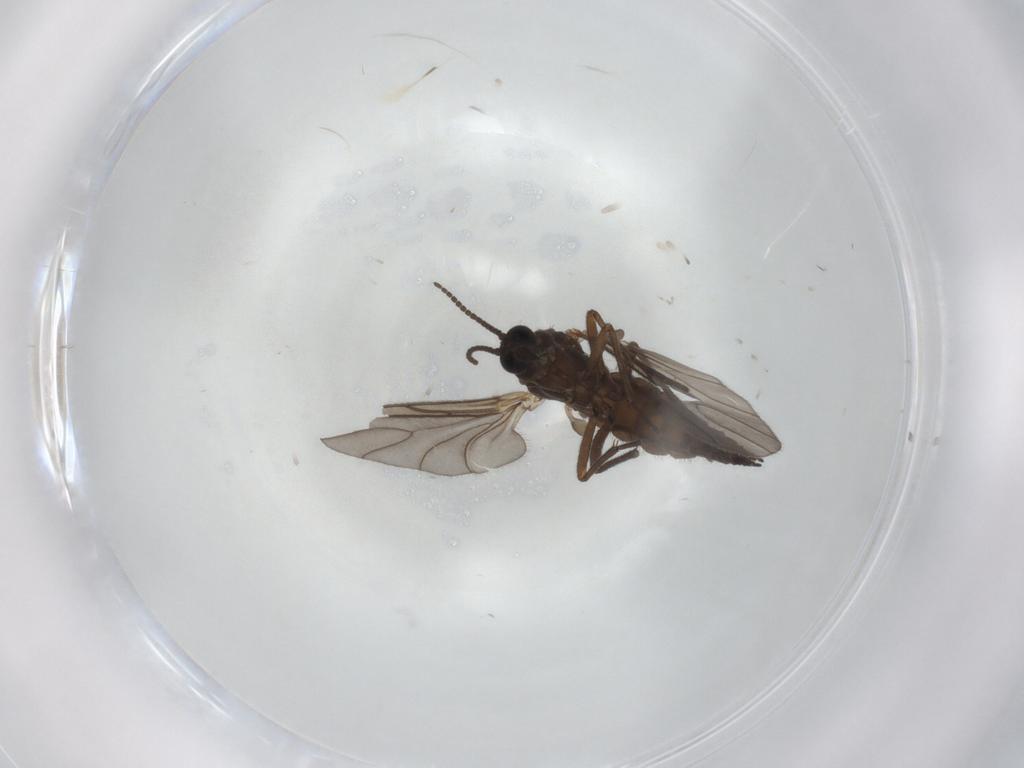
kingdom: Animalia
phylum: Arthropoda
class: Insecta
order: Diptera
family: Sciaridae
